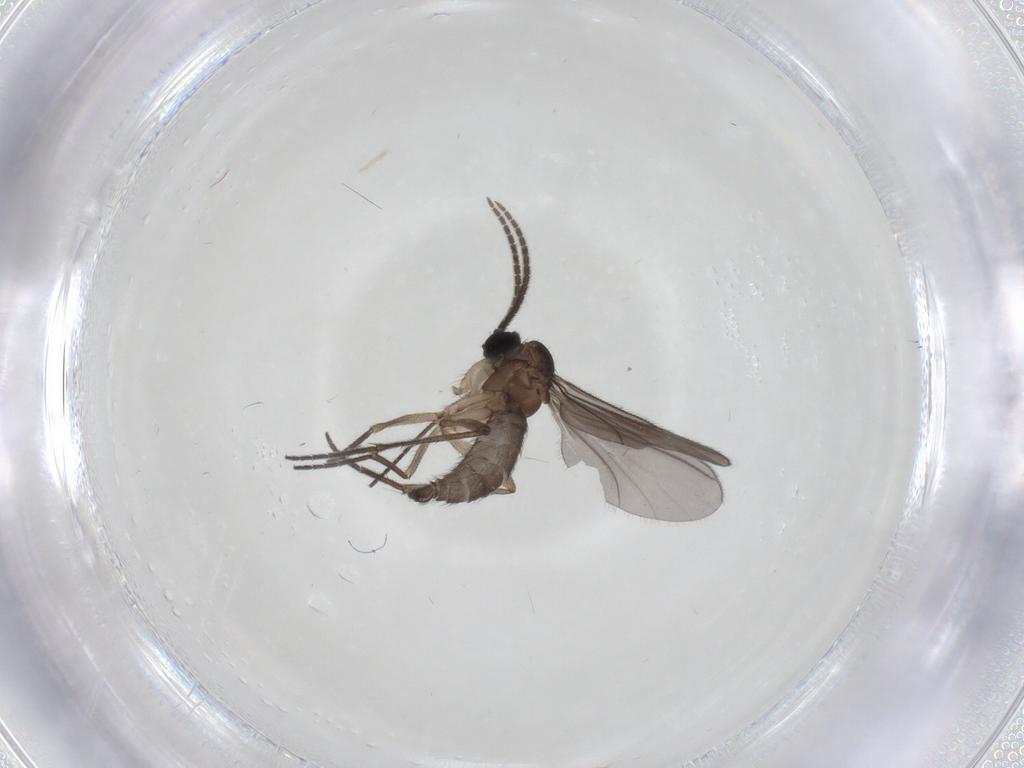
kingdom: Animalia
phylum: Arthropoda
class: Insecta
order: Diptera
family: Sciaridae
